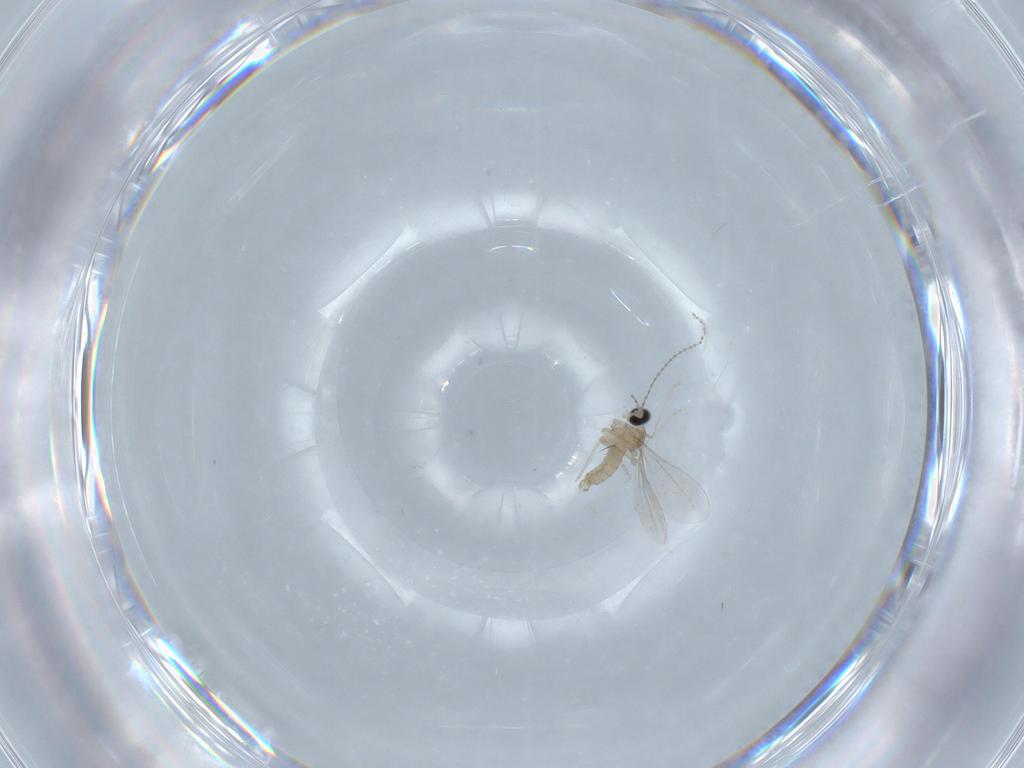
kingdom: Animalia
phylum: Arthropoda
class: Insecta
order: Diptera
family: Cecidomyiidae
